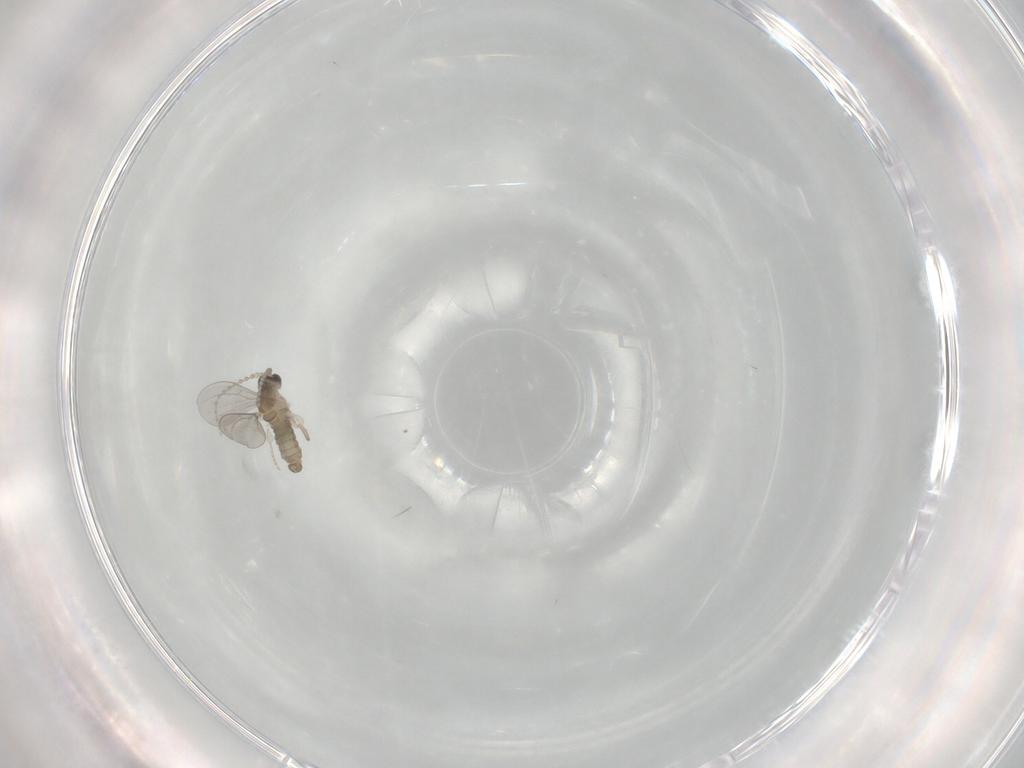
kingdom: Animalia
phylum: Arthropoda
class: Insecta
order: Diptera
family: Cecidomyiidae
